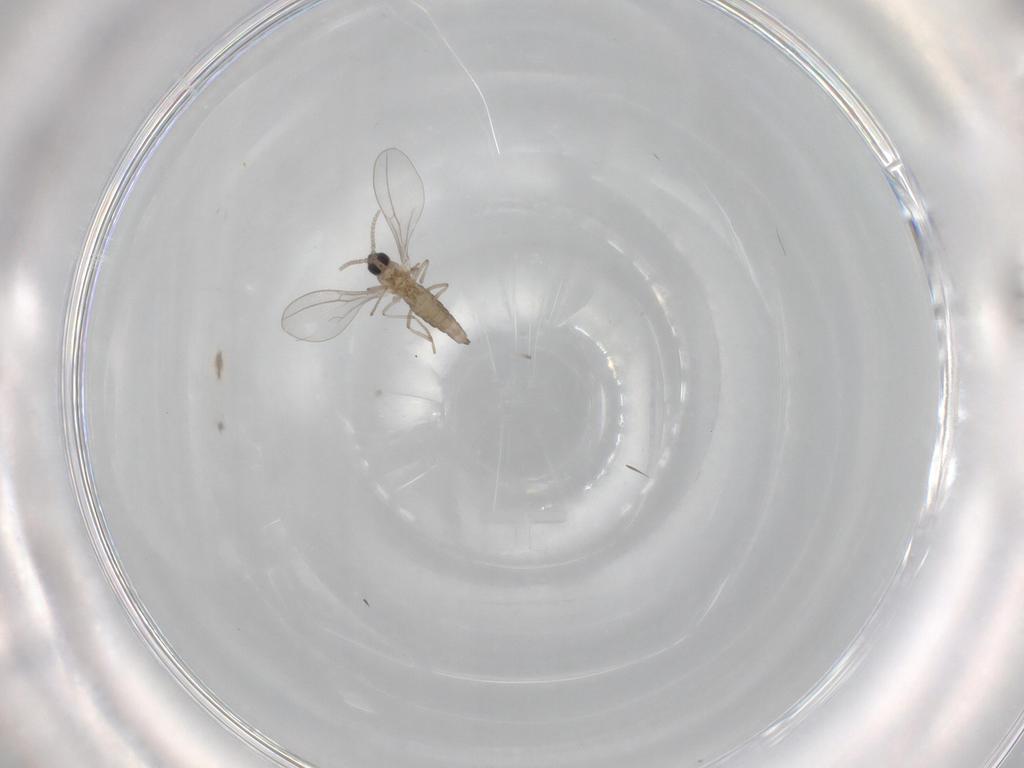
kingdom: Animalia
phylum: Arthropoda
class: Insecta
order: Diptera
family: Cecidomyiidae
